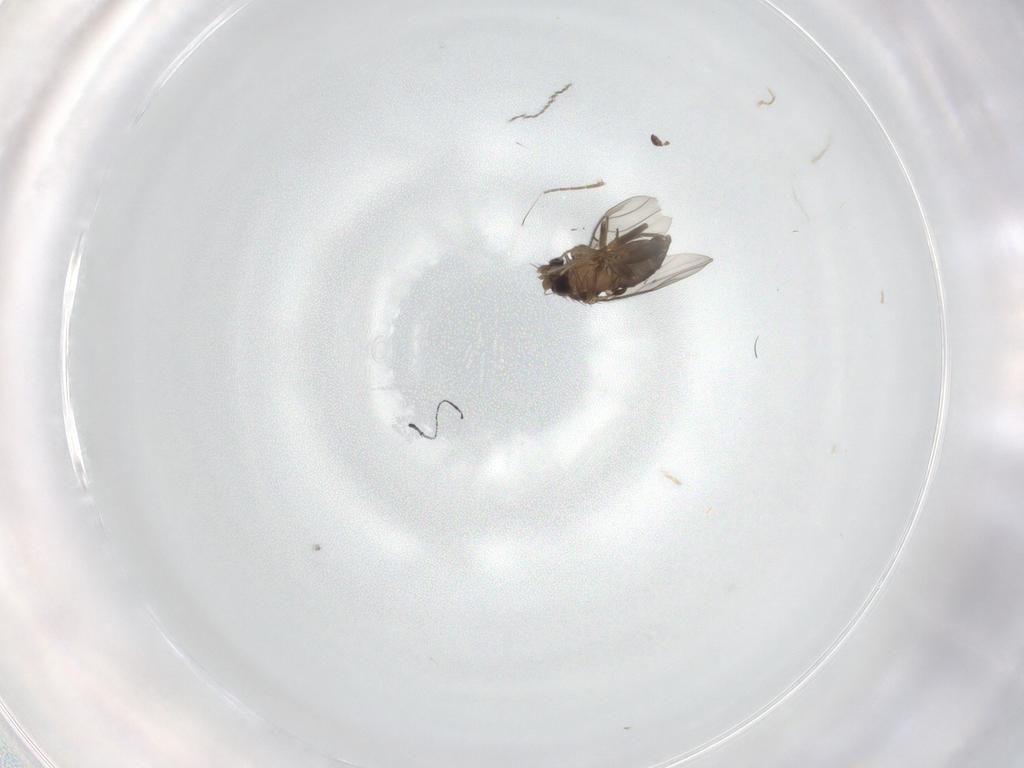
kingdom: Animalia
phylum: Arthropoda
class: Insecta
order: Diptera
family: Phoridae
